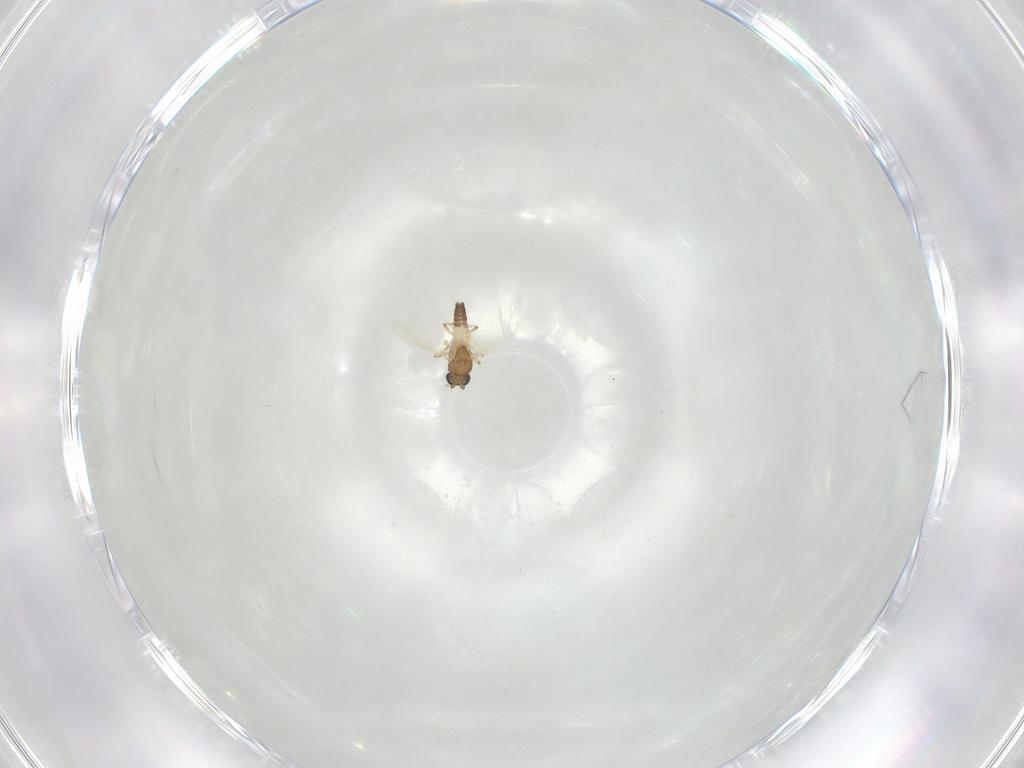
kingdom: Animalia
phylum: Arthropoda
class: Insecta
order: Diptera
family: Ceratopogonidae
